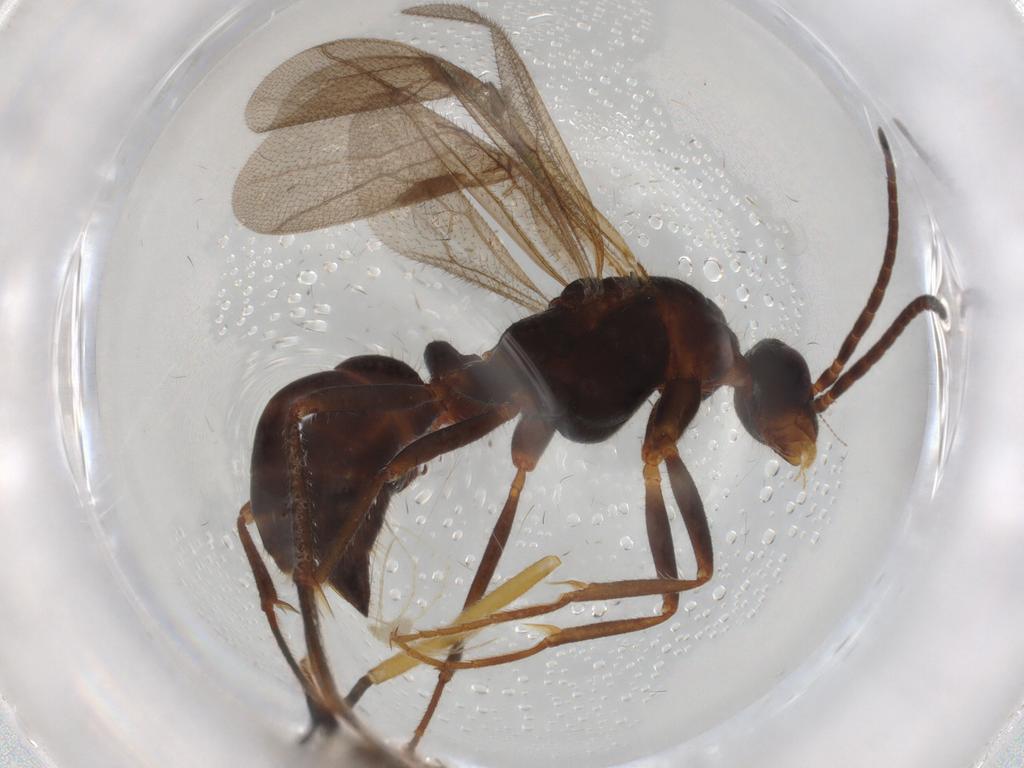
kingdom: Animalia
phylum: Arthropoda
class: Insecta
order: Hymenoptera
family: Formicidae
